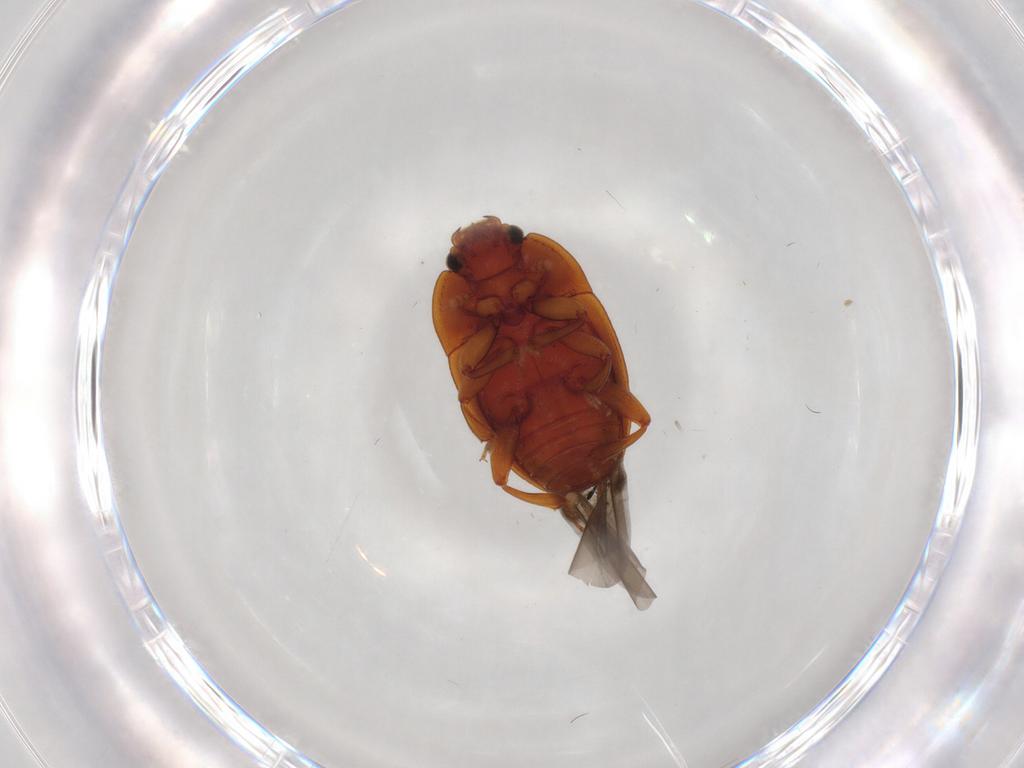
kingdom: Animalia
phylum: Arthropoda
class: Insecta
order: Coleoptera
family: Nitidulidae
